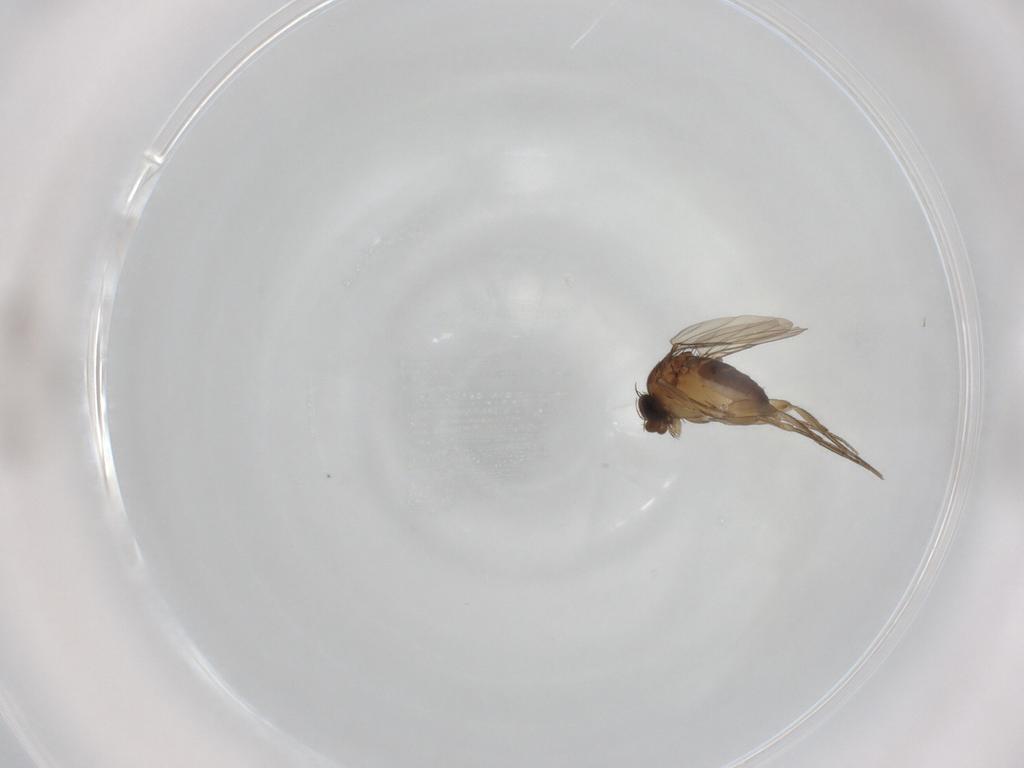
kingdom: Animalia
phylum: Arthropoda
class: Insecta
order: Diptera
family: Phoridae
